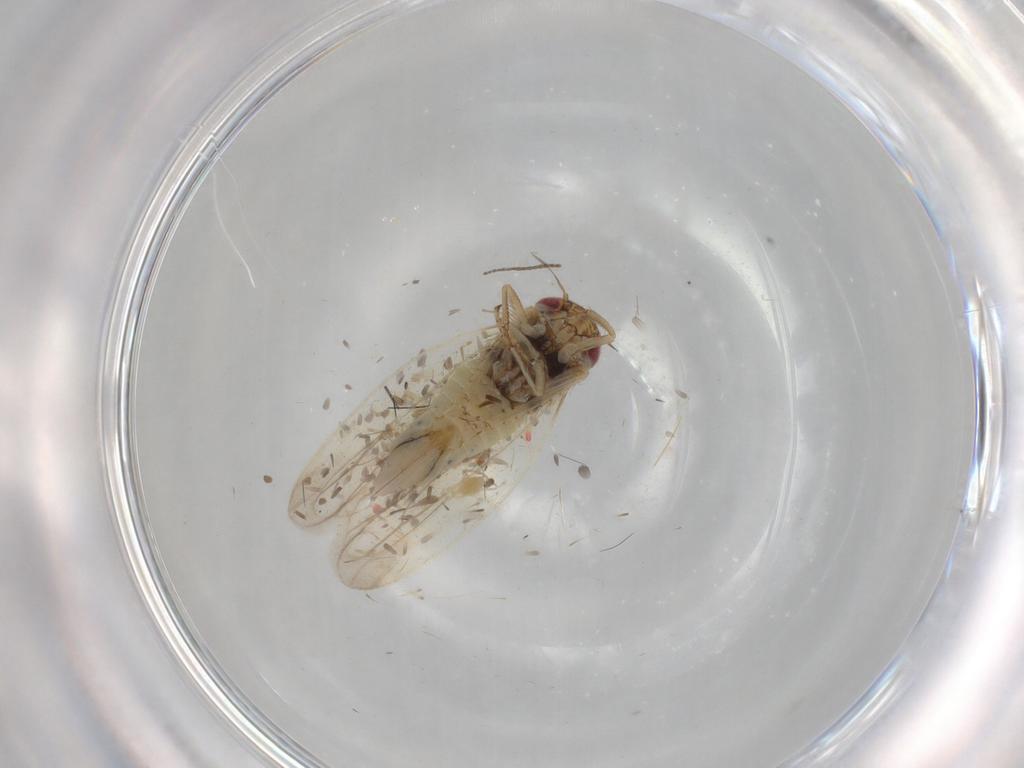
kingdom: Animalia
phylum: Arthropoda
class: Insecta
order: Hemiptera
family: Cicadellidae
